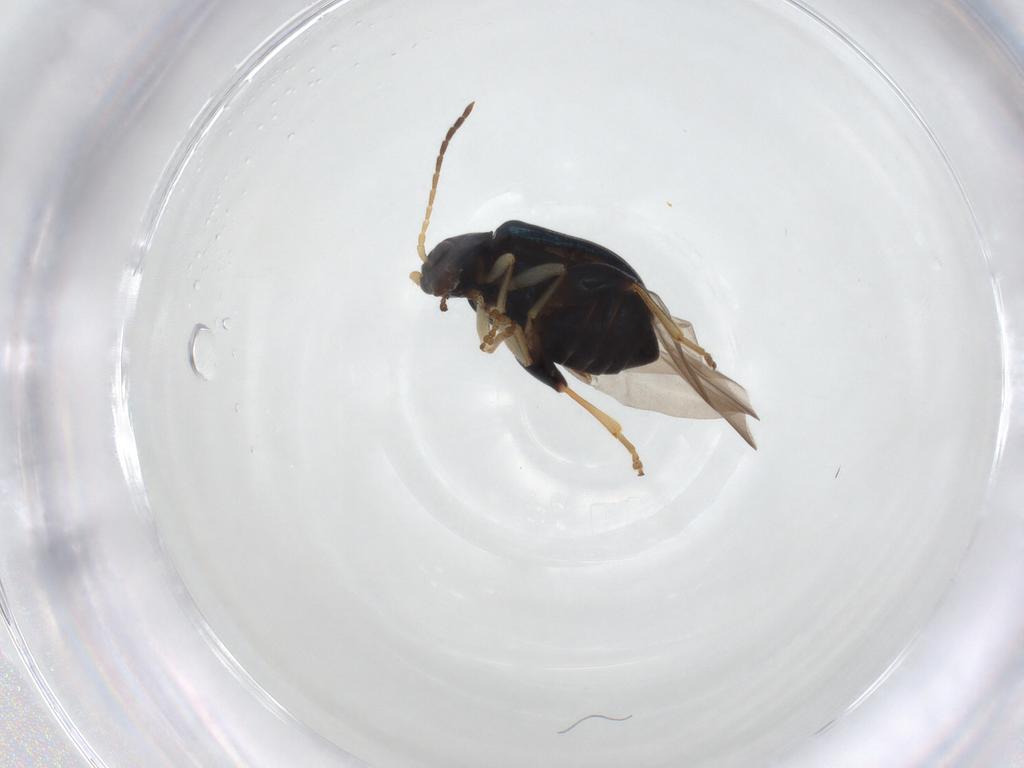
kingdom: Animalia
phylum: Arthropoda
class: Insecta
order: Coleoptera
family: Chrysomelidae
